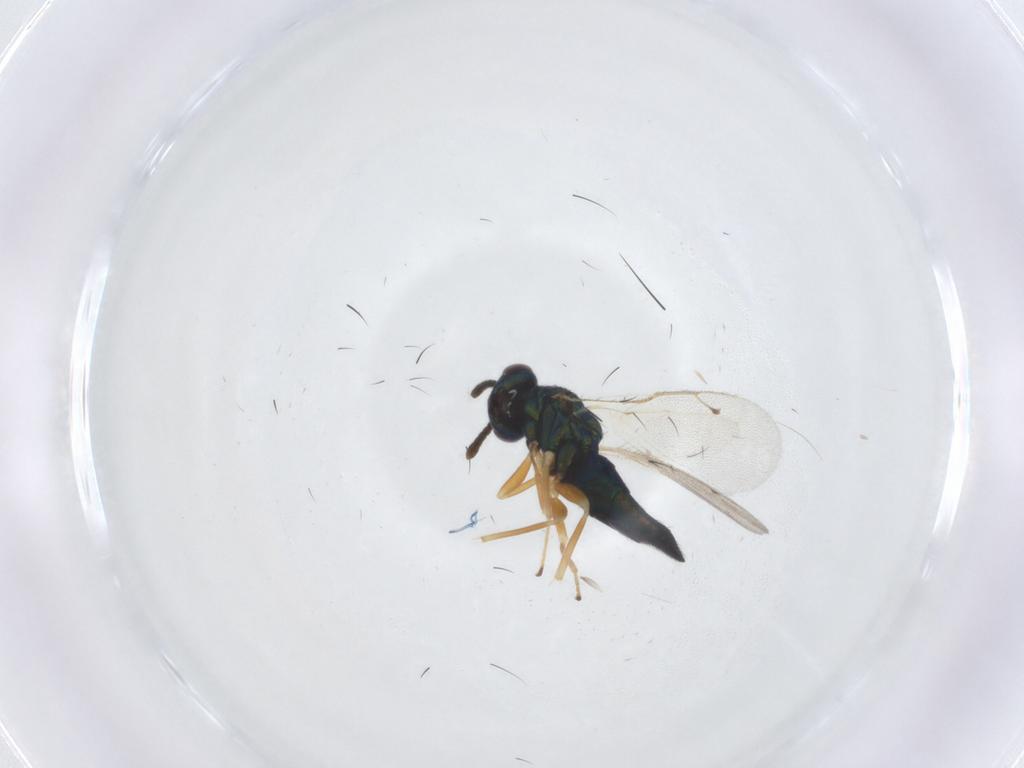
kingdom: Animalia
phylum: Arthropoda
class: Insecta
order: Hymenoptera
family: Pteromalidae
